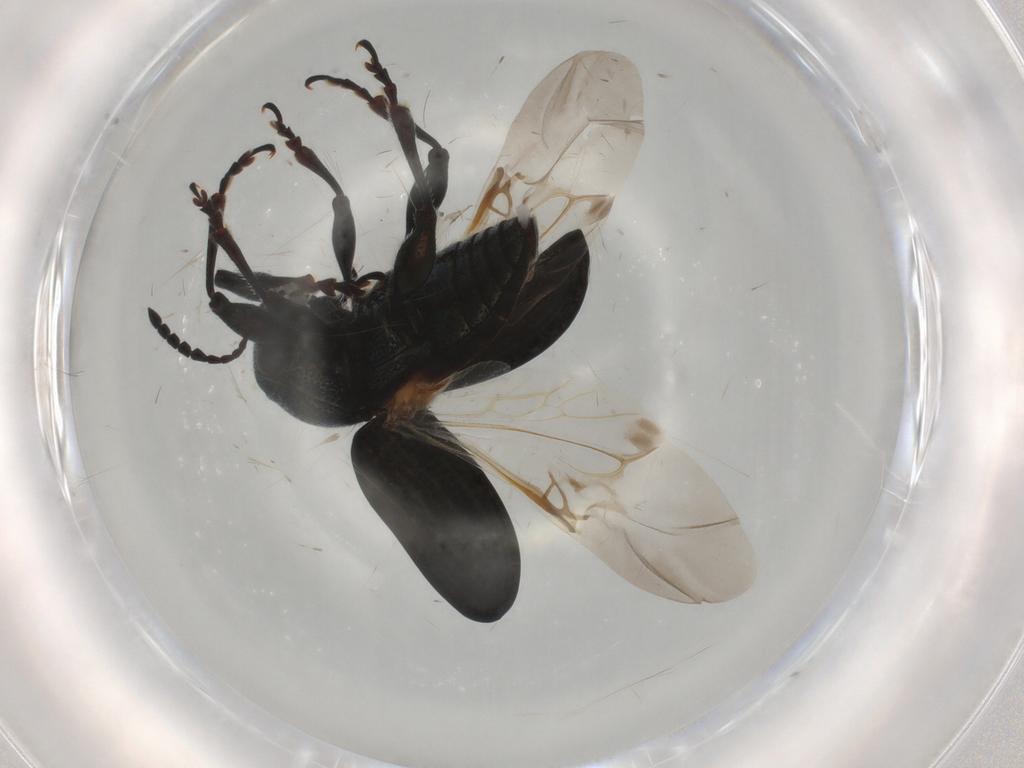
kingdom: Animalia
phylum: Arthropoda
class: Insecta
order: Coleoptera
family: Chrysomelidae
